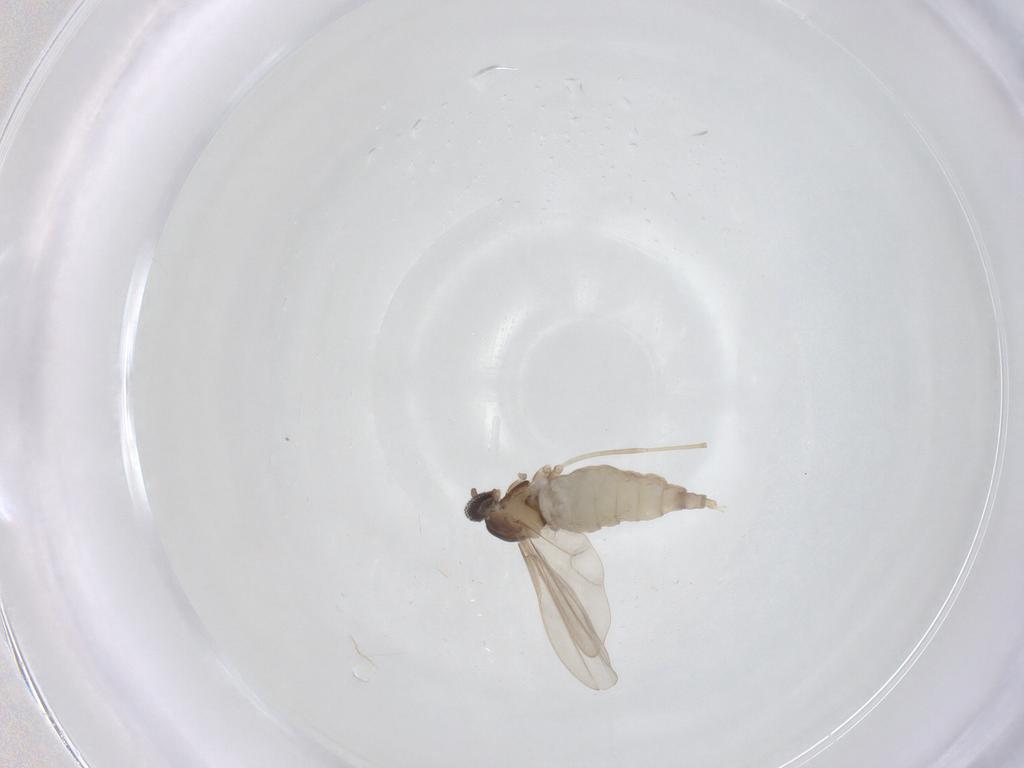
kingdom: Animalia
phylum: Arthropoda
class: Insecta
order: Diptera
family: Cecidomyiidae
